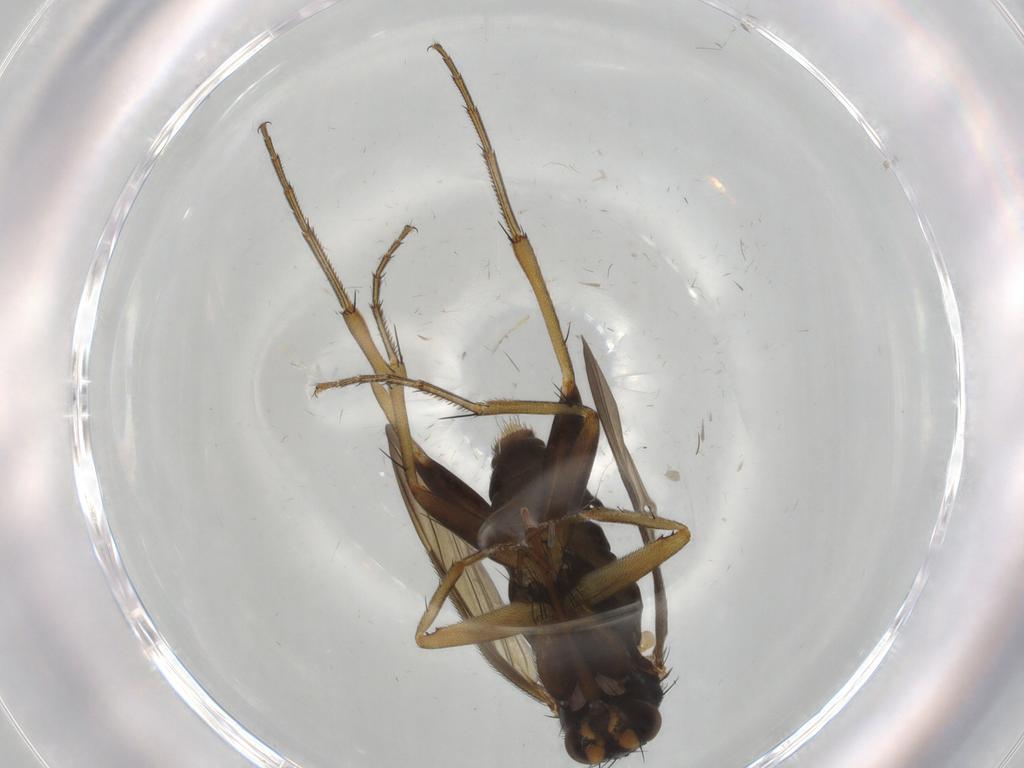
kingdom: Animalia
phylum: Arthropoda
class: Insecta
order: Diptera
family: Phoridae
